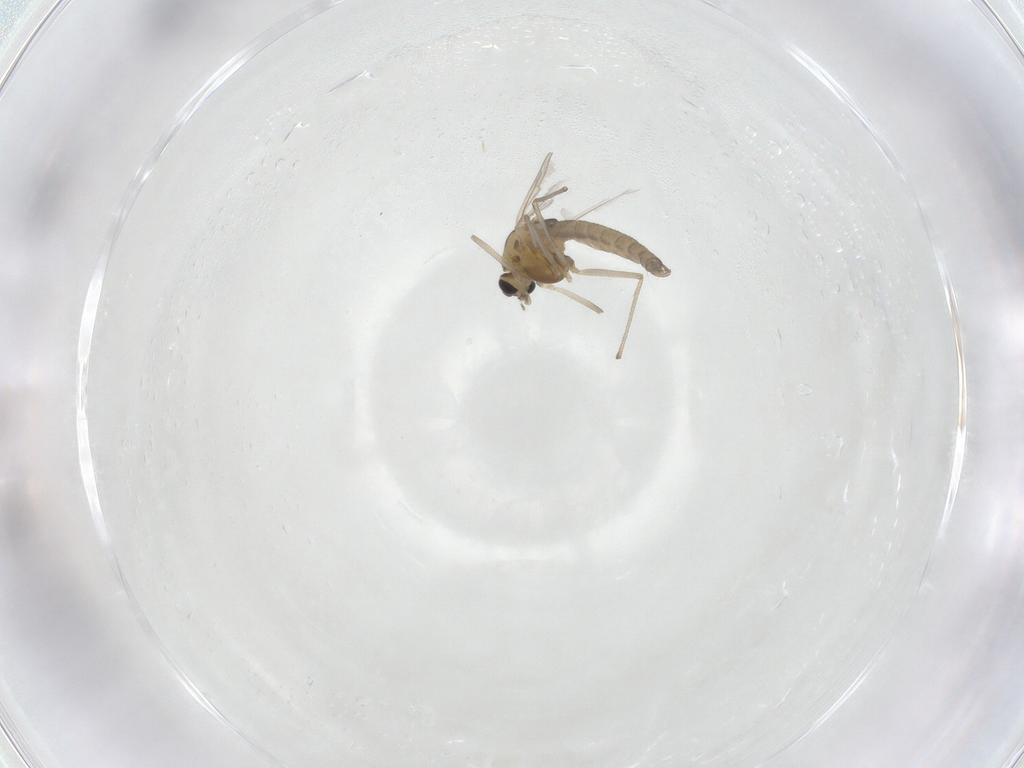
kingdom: Animalia
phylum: Arthropoda
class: Insecta
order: Diptera
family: Chironomidae
